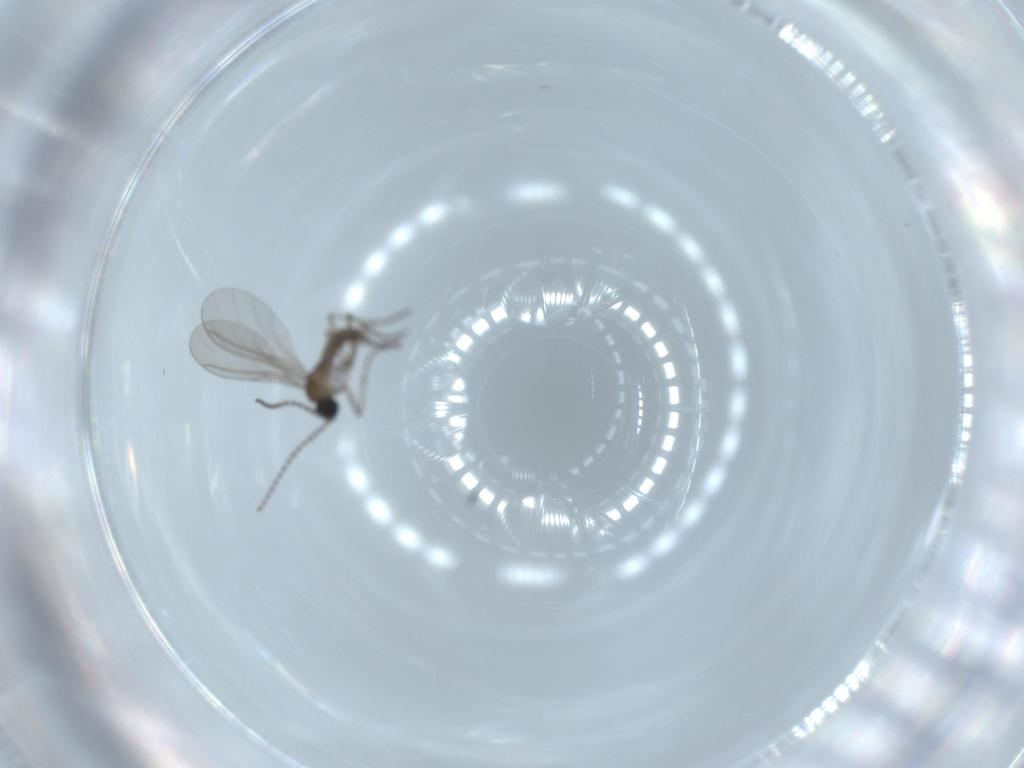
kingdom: Animalia
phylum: Arthropoda
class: Insecta
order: Diptera
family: Sciaridae
